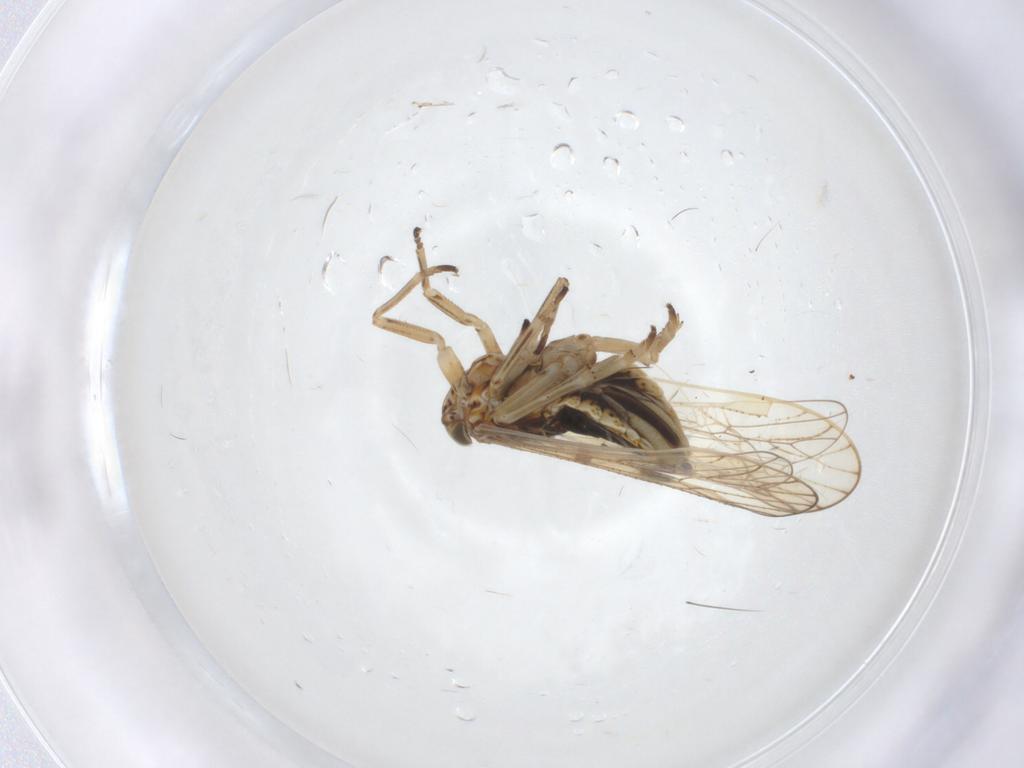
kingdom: Animalia
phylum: Arthropoda
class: Insecta
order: Hemiptera
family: Delphacidae
